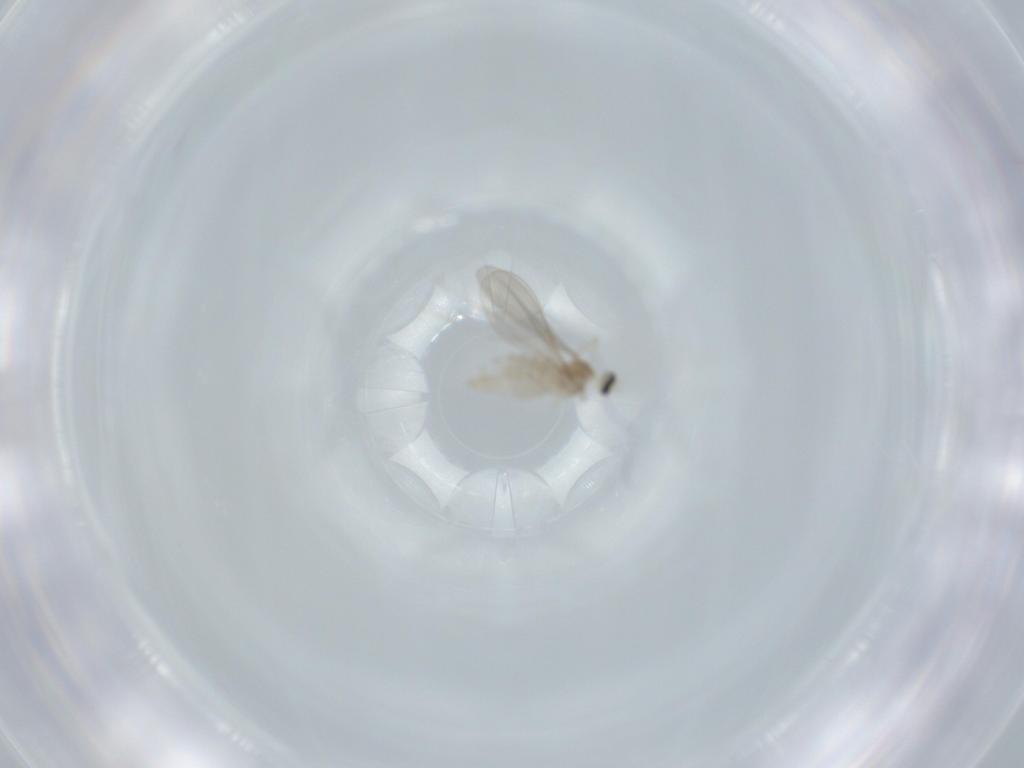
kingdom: Animalia
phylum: Arthropoda
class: Insecta
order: Diptera
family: Cecidomyiidae
